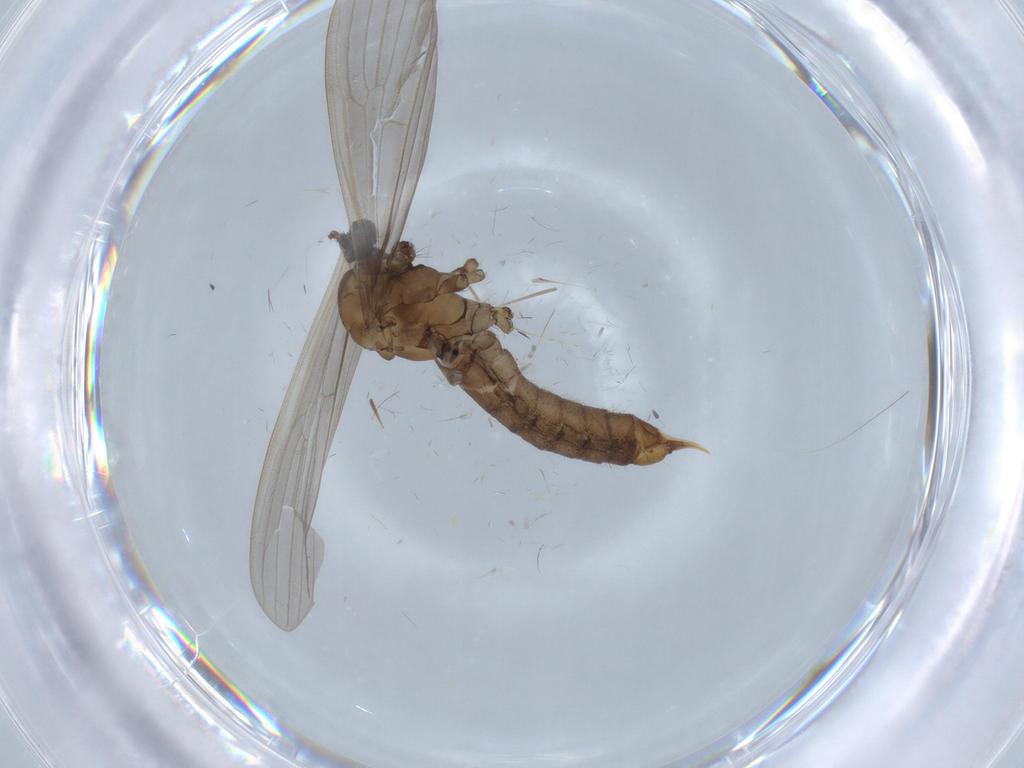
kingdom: Animalia
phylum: Arthropoda
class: Insecta
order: Diptera
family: Limoniidae
